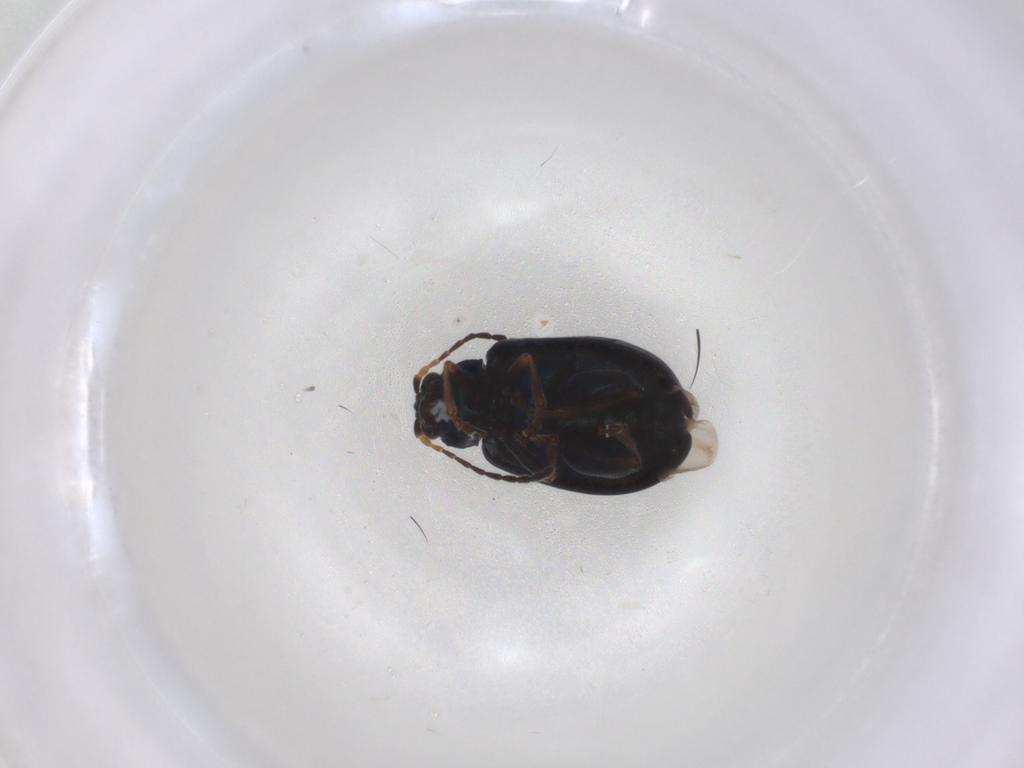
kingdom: Animalia
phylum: Arthropoda
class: Insecta
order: Coleoptera
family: Chrysomelidae
